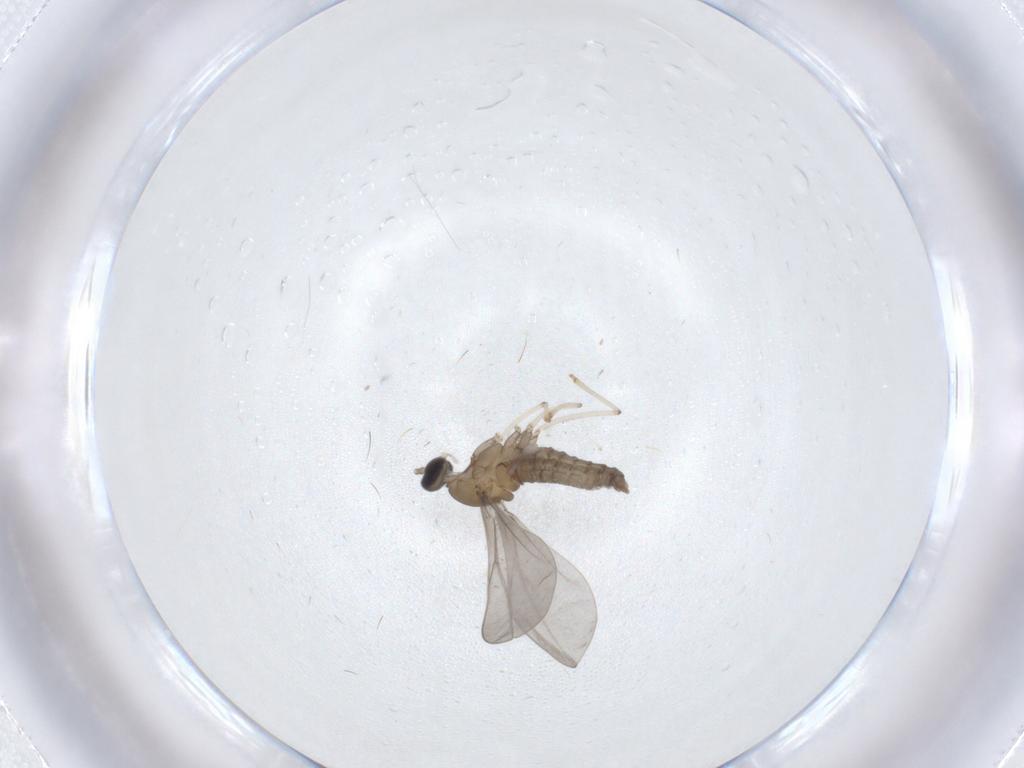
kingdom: Animalia
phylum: Arthropoda
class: Insecta
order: Diptera
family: Cecidomyiidae
